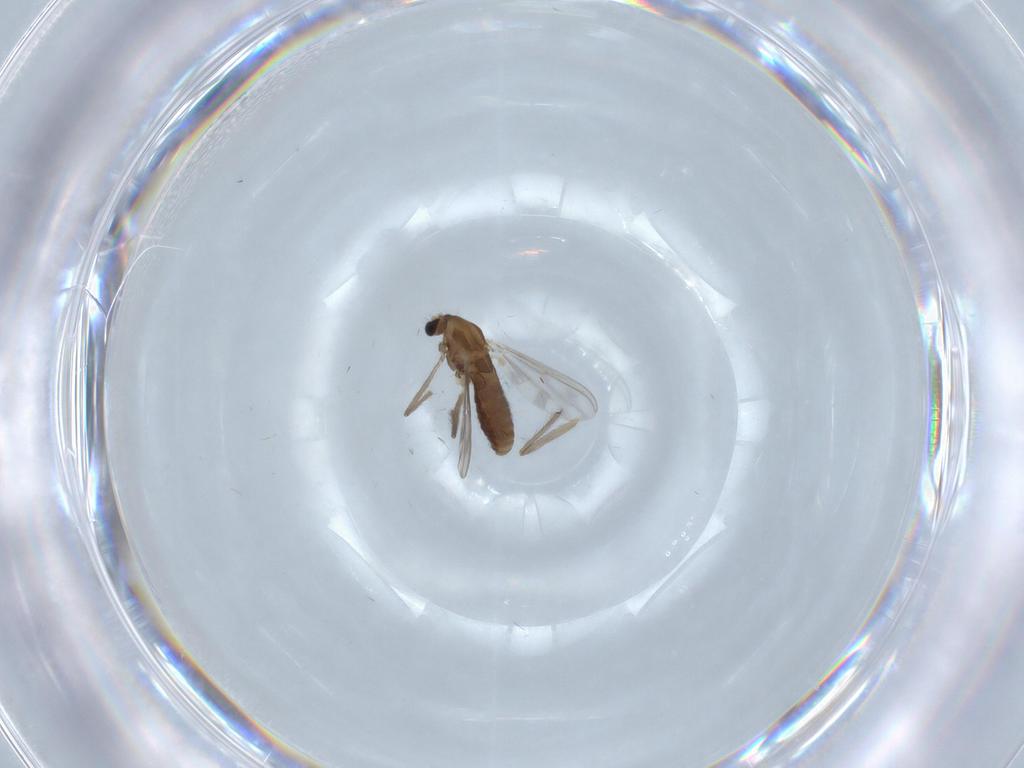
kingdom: Animalia
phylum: Arthropoda
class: Insecta
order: Diptera
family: Chironomidae
